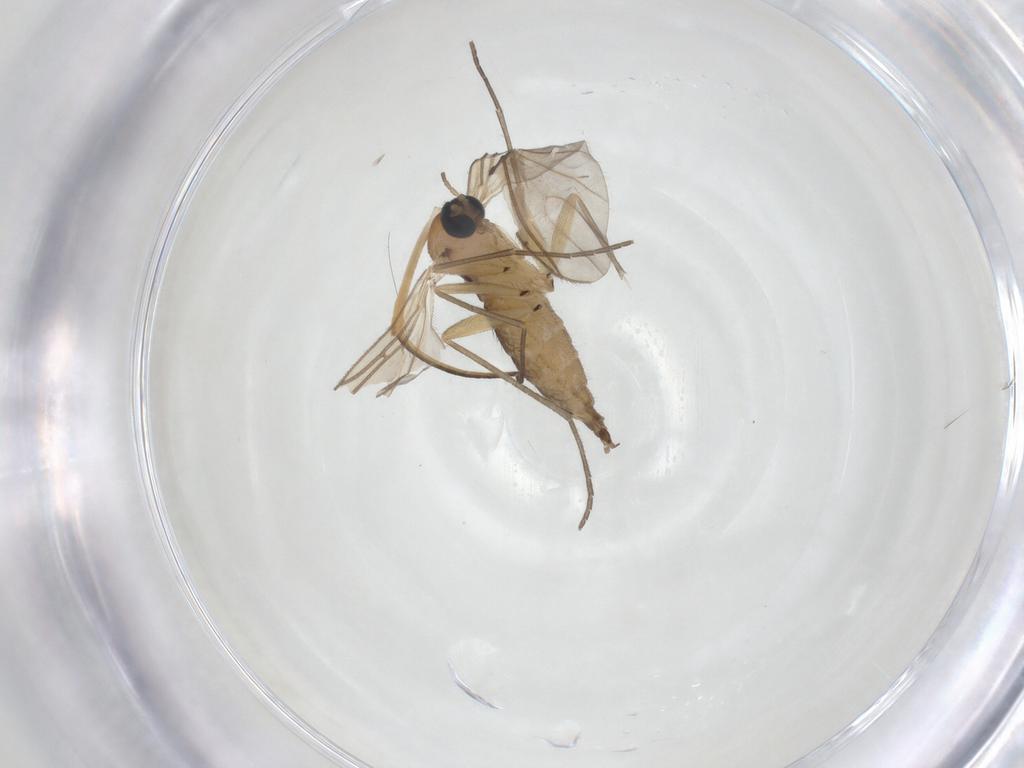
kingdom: Animalia
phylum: Arthropoda
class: Insecta
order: Diptera
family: Sciaridae
